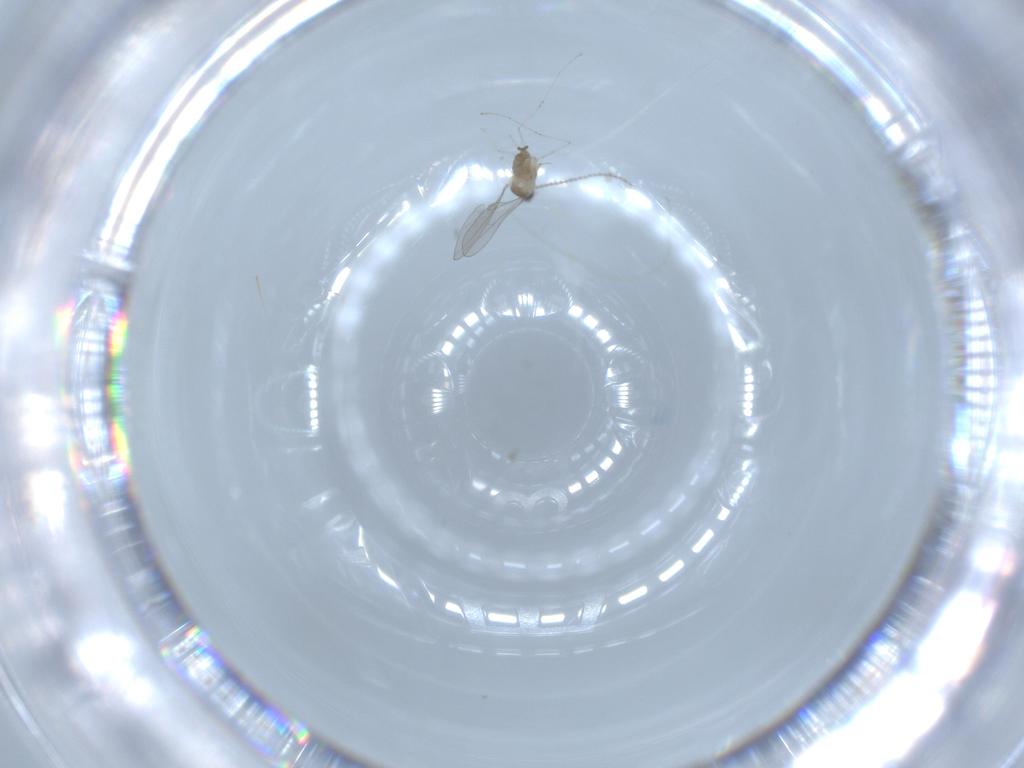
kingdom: Animalia
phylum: Arthropoda
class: Insecta
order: Diptera
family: Cecidomyiidae
